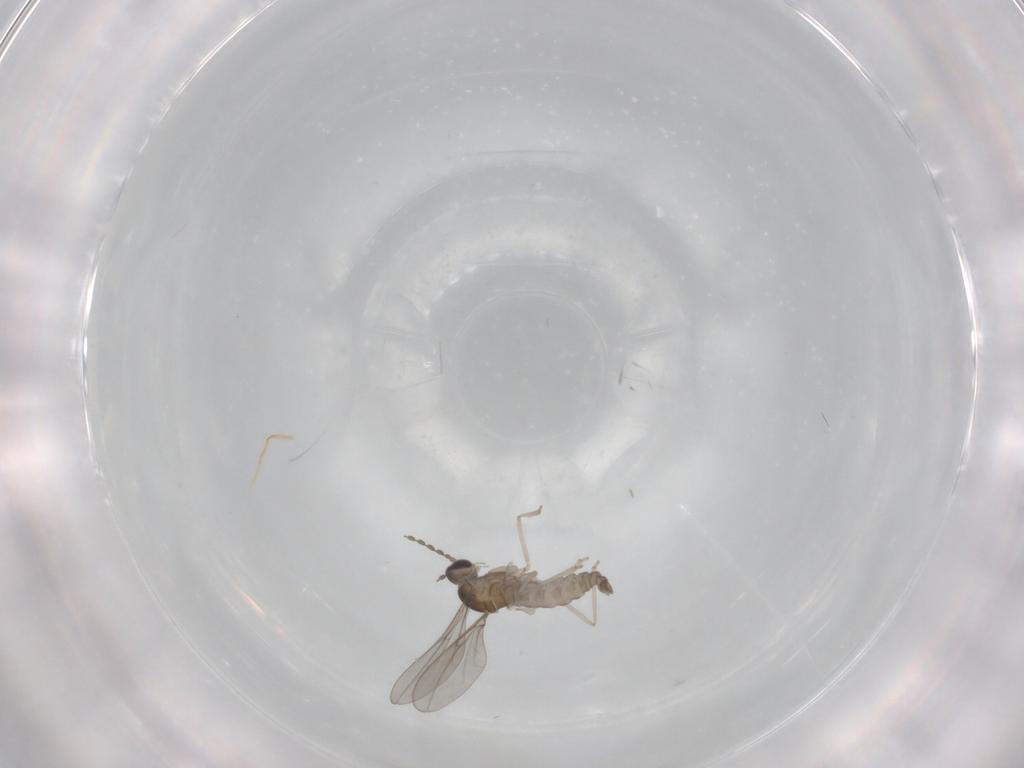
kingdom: Animalia
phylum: Arthropoda
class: Insecta
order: Diptera
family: Cecidomyiidae
